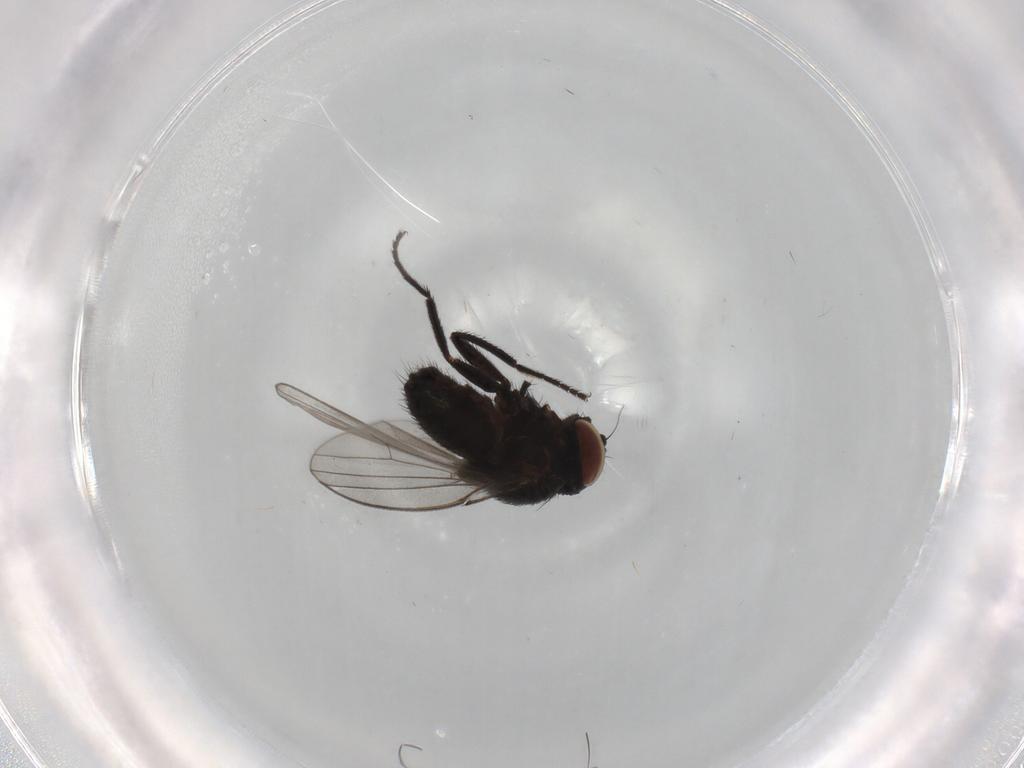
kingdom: Animalia
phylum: Arthropoda
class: Insecta
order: Diptera
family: Milichiidae
